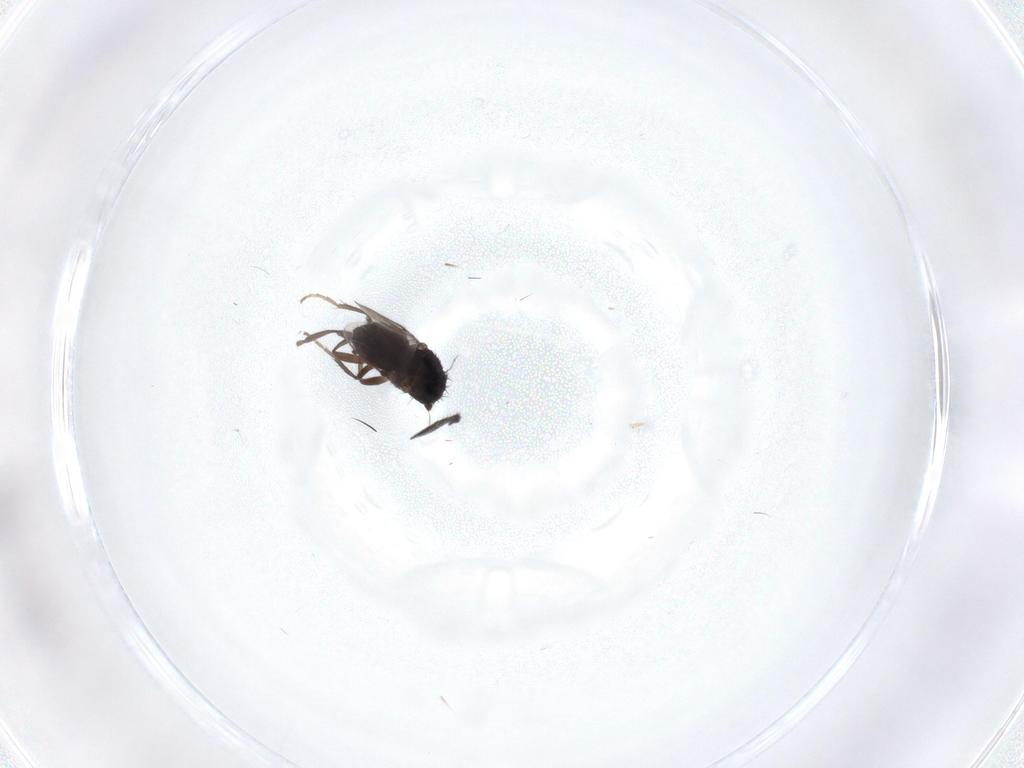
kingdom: Animalia
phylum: Arthropoda
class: Insecta
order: Diptera
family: Sciaridae
